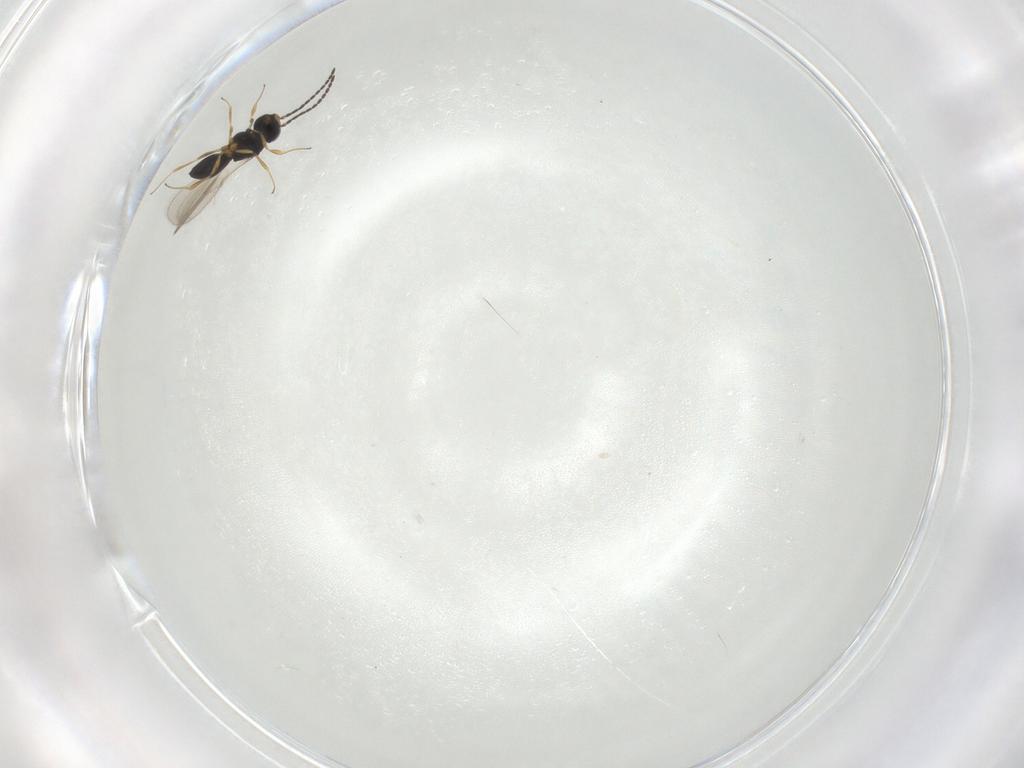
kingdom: Animalia
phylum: Arthropoda
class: Insecta
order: Hymenoptera
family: Scelionidae
